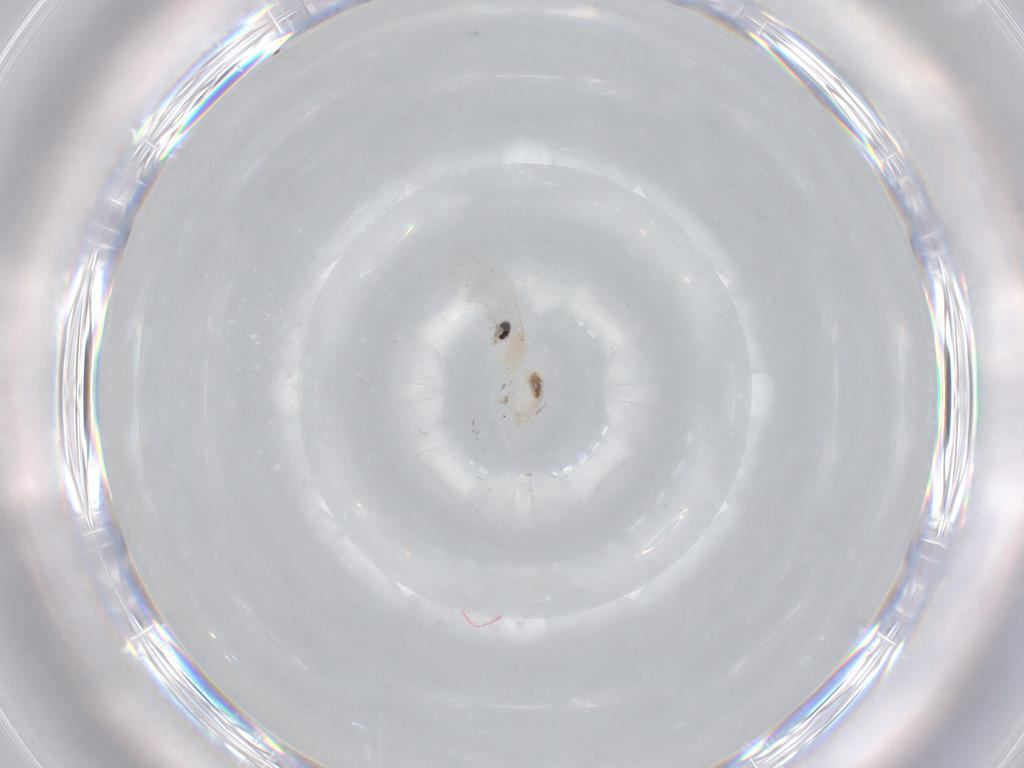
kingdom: Animalia
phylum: Arthropoda
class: Insecta
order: Diptera
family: Cecidomyiidae
